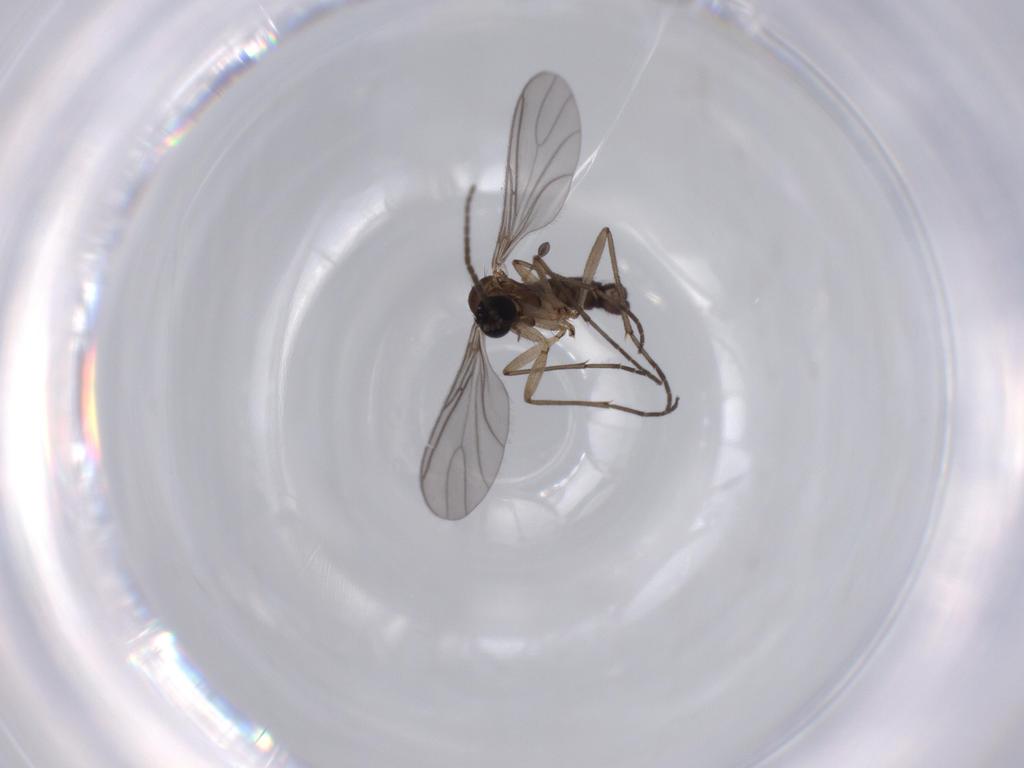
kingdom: Animalia
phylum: Arthropoda
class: Insecta
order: Diptera
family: Sciaridae
